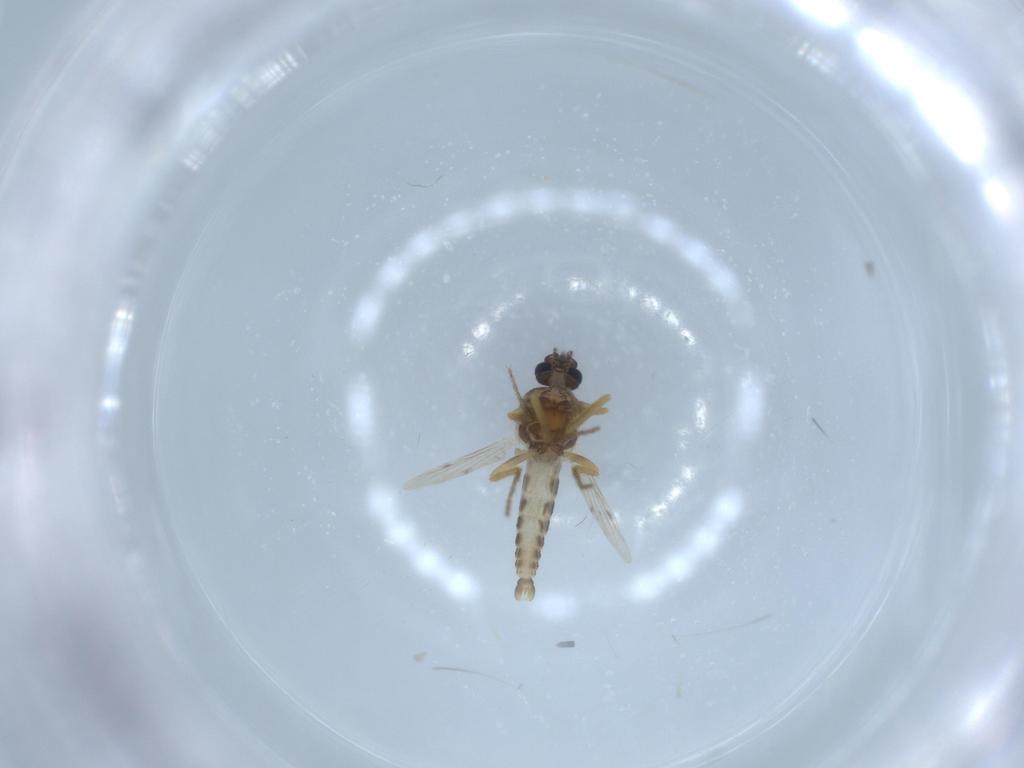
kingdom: Animalia
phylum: Arthropoda
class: Insecta
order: Diptera
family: Ceratopogonidae
